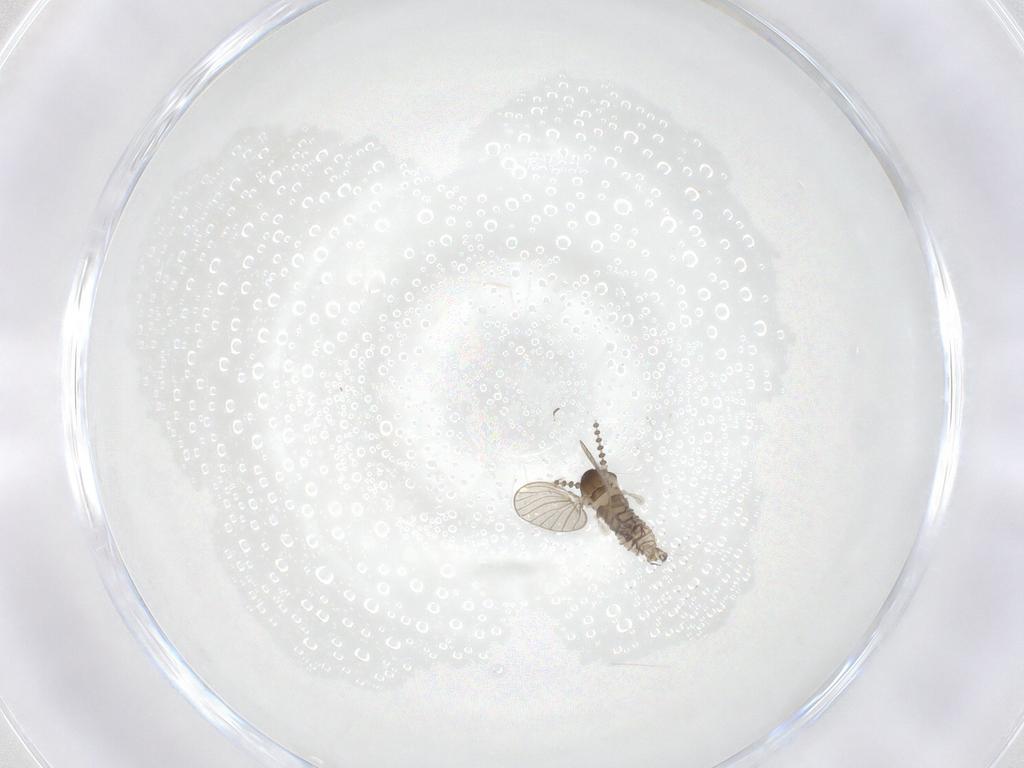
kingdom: Animalia
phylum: Arthropoda
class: Insecta
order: Diptera
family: Psychodidae
